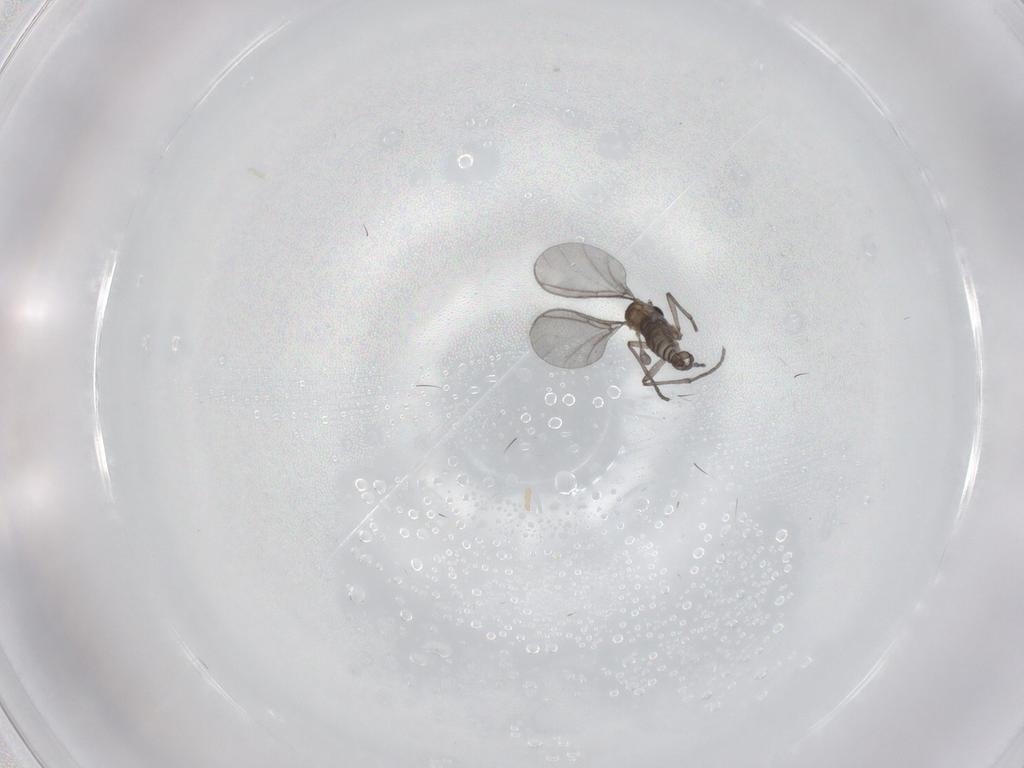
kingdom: Animalia
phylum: Arthropoda
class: Insecta
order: Diptera
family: Sciaridae
